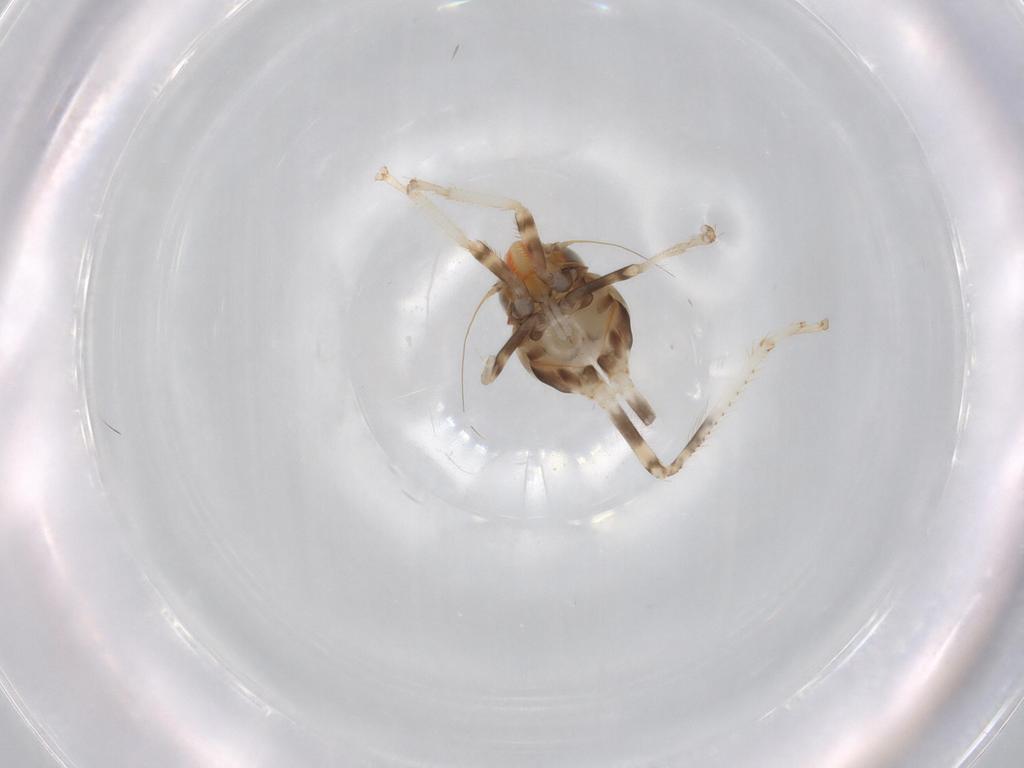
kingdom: Animalia
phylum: Arthropoda
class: Insecta
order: Hemiptera
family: Cicadellidae
